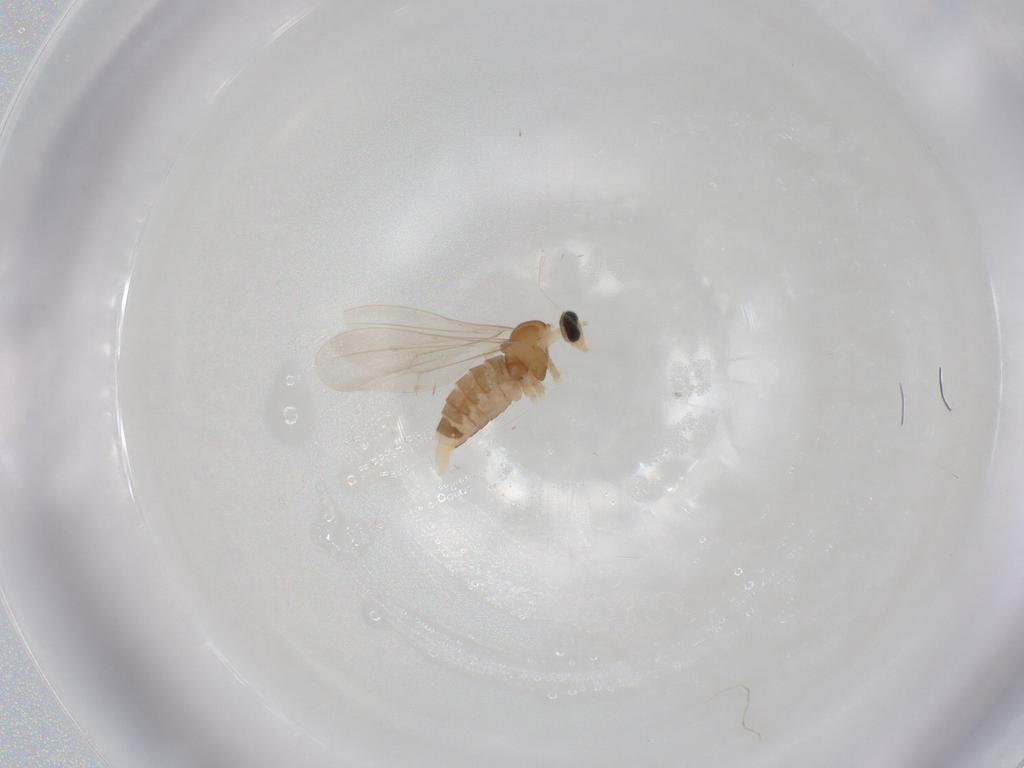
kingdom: Animalia
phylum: Arthropoda
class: Insecta
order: Diptera
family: Cecidomyiidae
